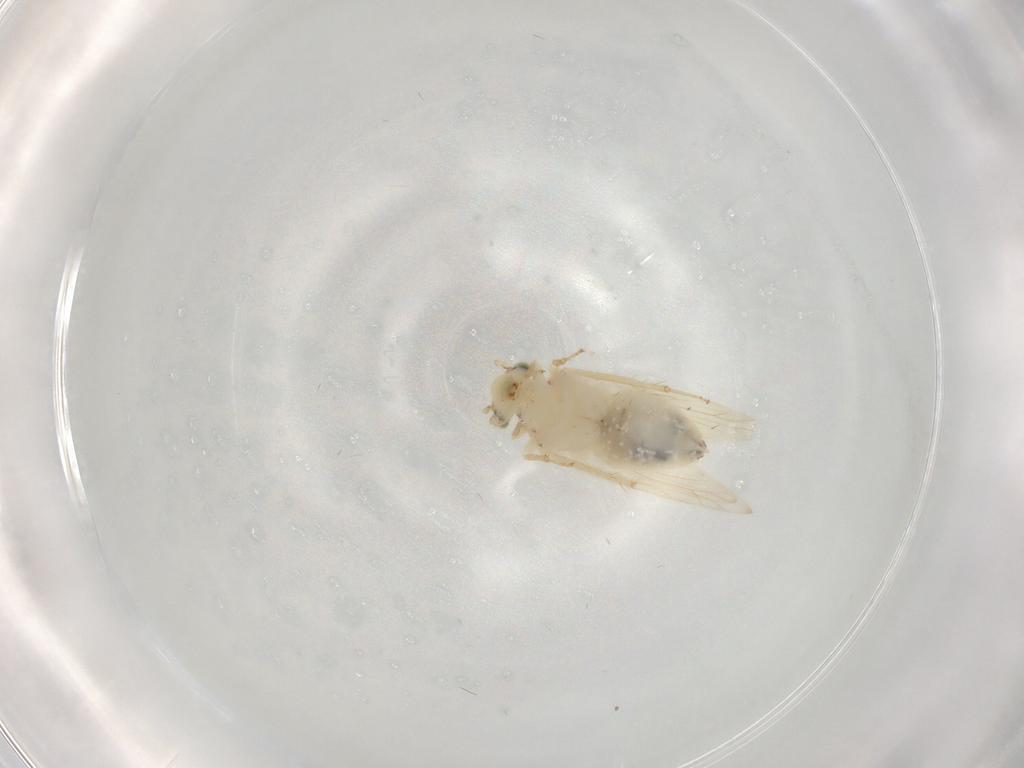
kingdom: Animalia
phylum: Arthropoda
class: Insecta
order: Psocodea
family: Lepidopsocidae
